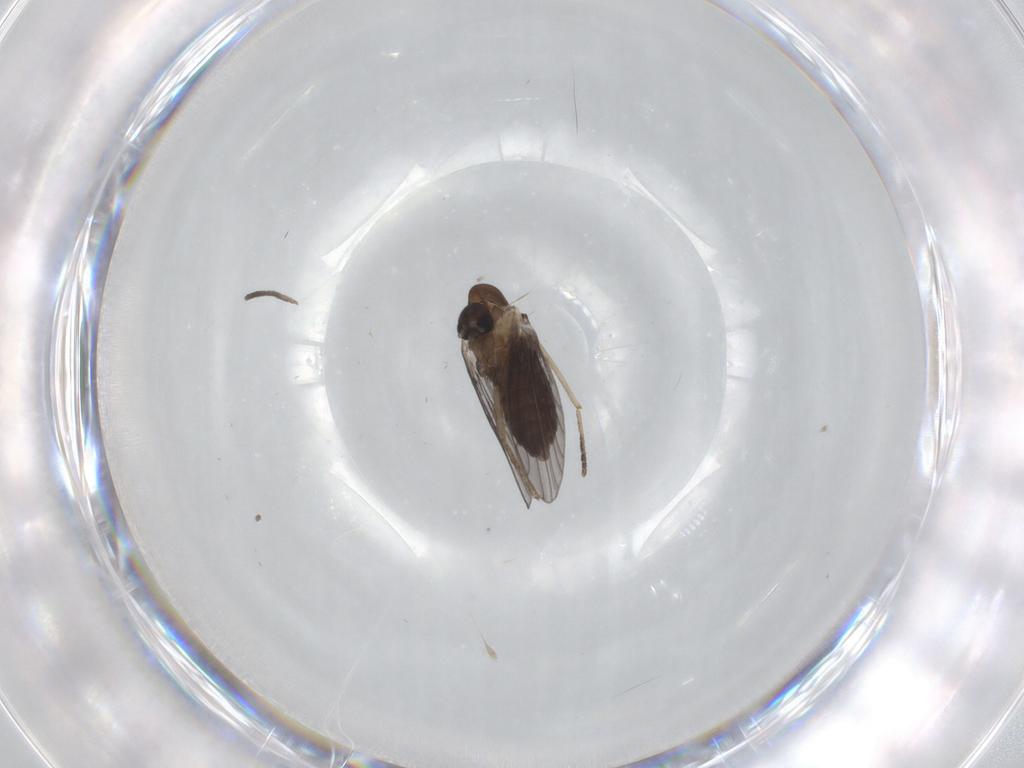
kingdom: Animalia
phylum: Arthropoda
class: Insecta
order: Diptera
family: Psychodidae
